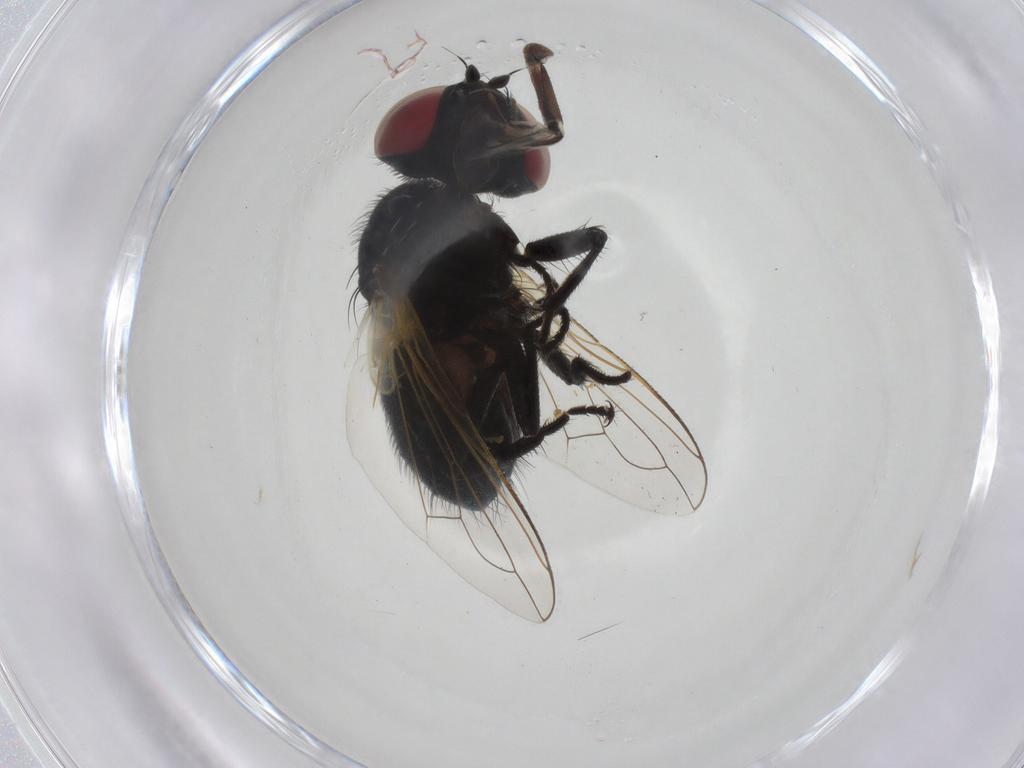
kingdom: Animalia
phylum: Arthropoda
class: Insecta
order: Diptera
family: Tachinidae
